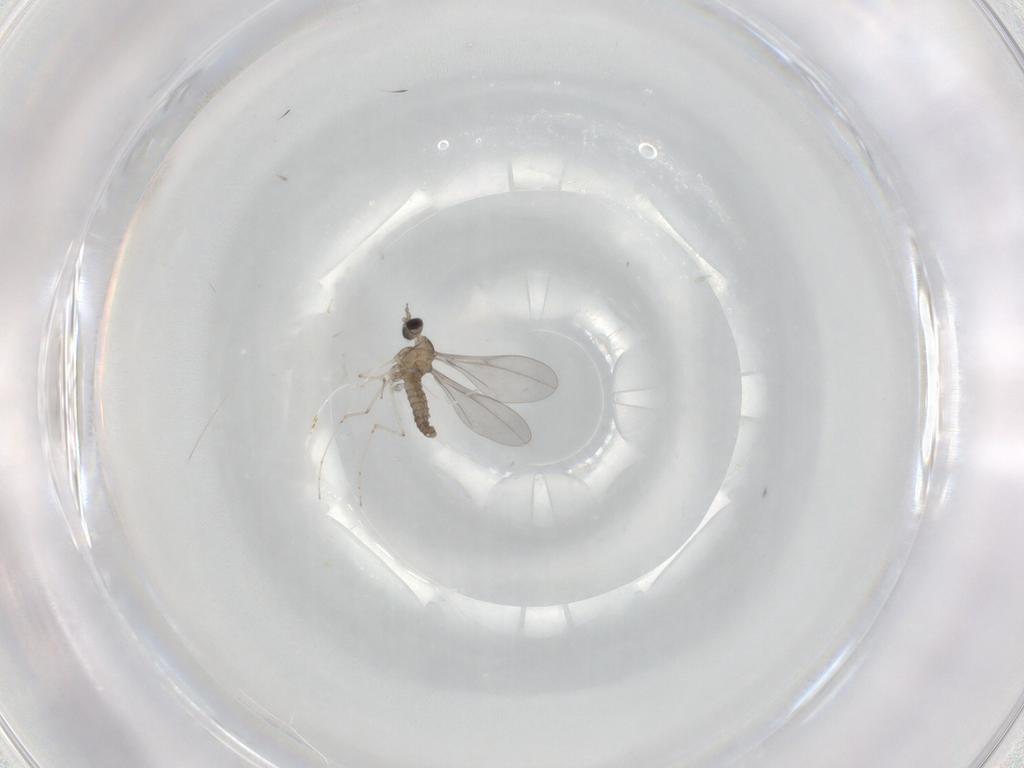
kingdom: Animalia
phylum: Arthropoda
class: Insecta
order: Diptera
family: Cecidomyiidae
